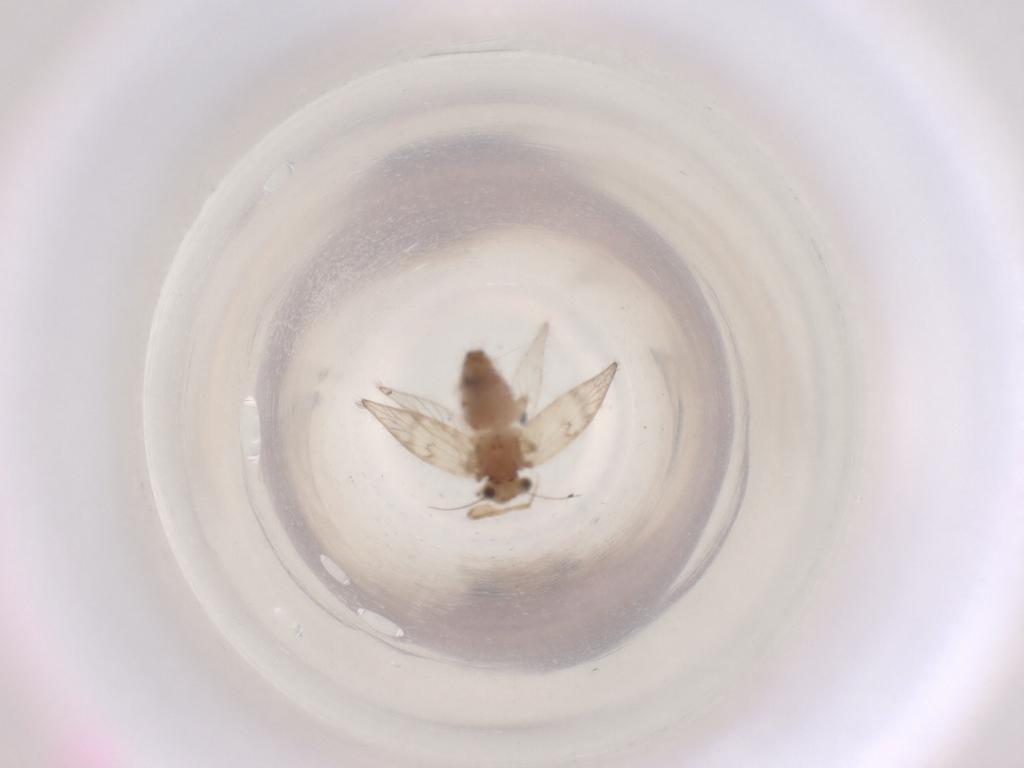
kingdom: Animalia
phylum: Arthropoda
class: Insecta
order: Psocodea
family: Lepidopsocidae
